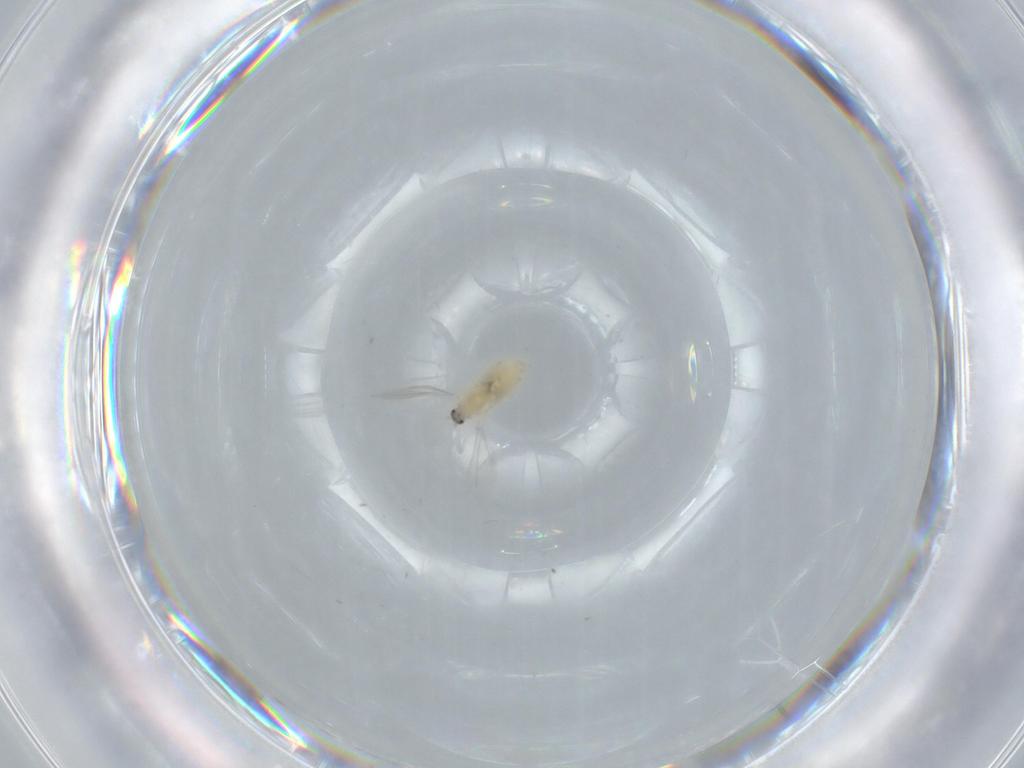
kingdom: Animalia
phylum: Arthropoda
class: Insecta
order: Diptera
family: Cecidomyiidae
